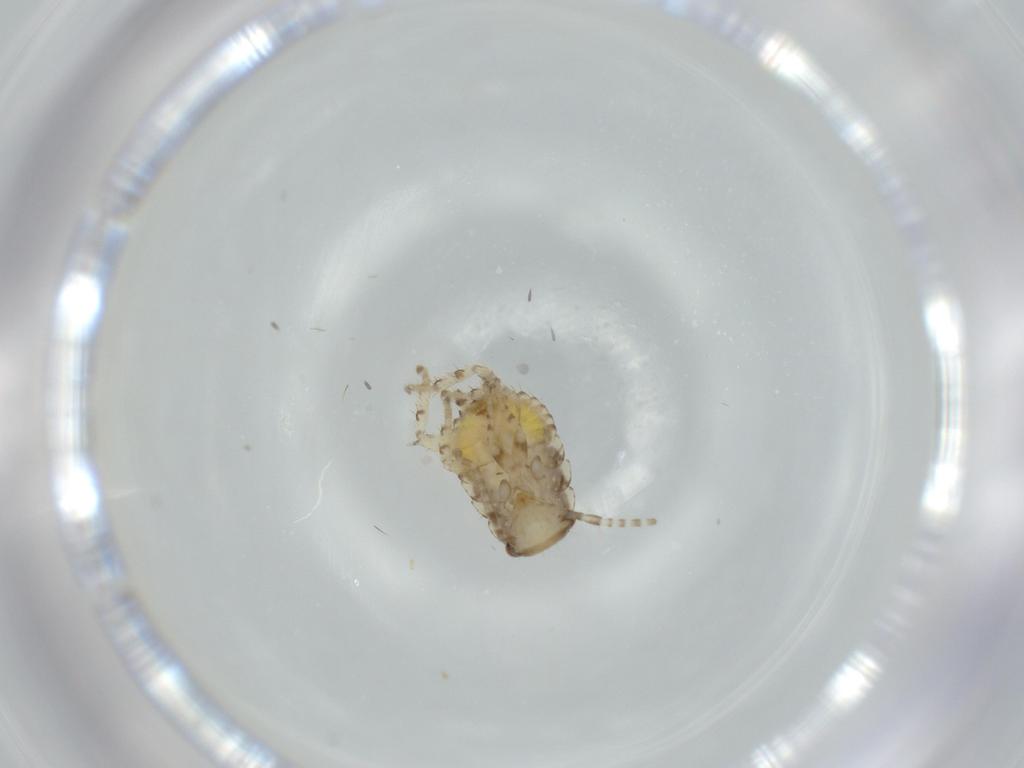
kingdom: Animalia
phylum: Arthropoda
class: Insecta
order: Blattodea
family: Ectobiidae
